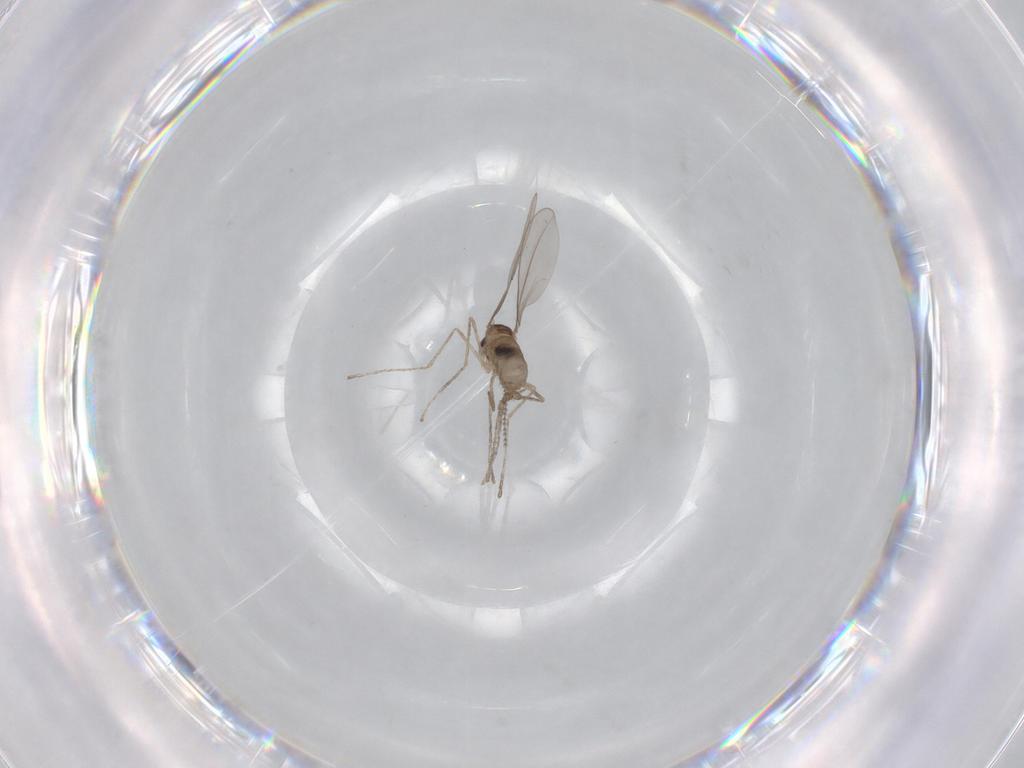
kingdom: Animalia
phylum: Arthropoda
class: Insecta
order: Diptera
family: Cecidomyiidae
